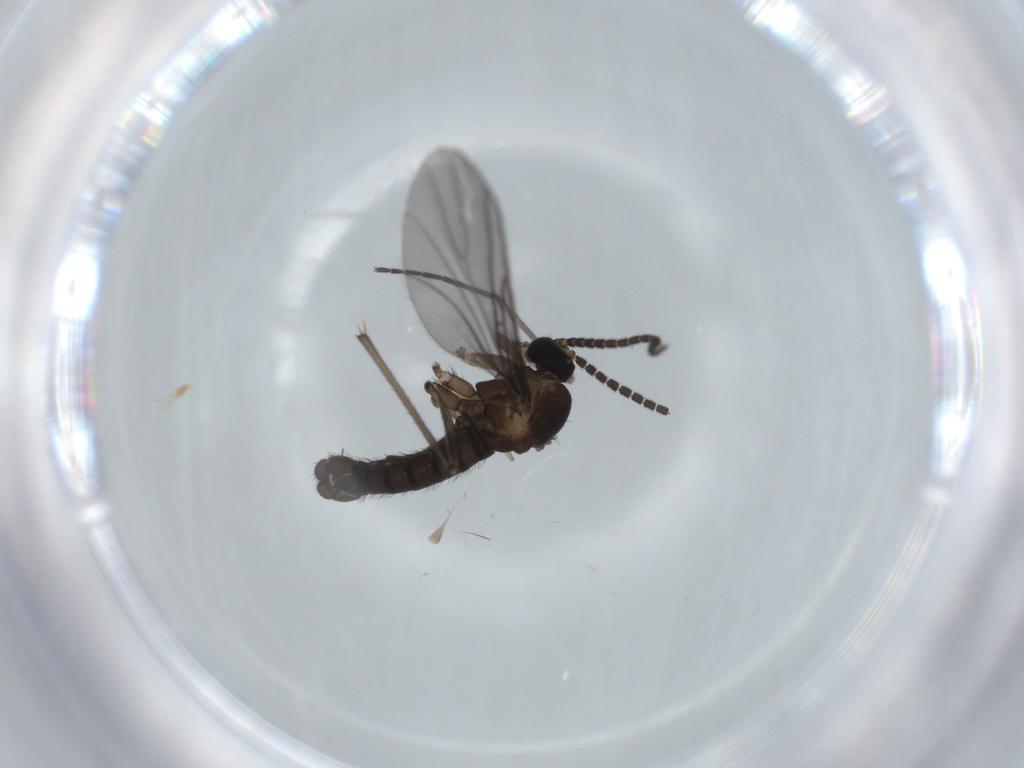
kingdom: Animalia
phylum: Arthropoda
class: Insecta
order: Diptera
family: Sciaridae
